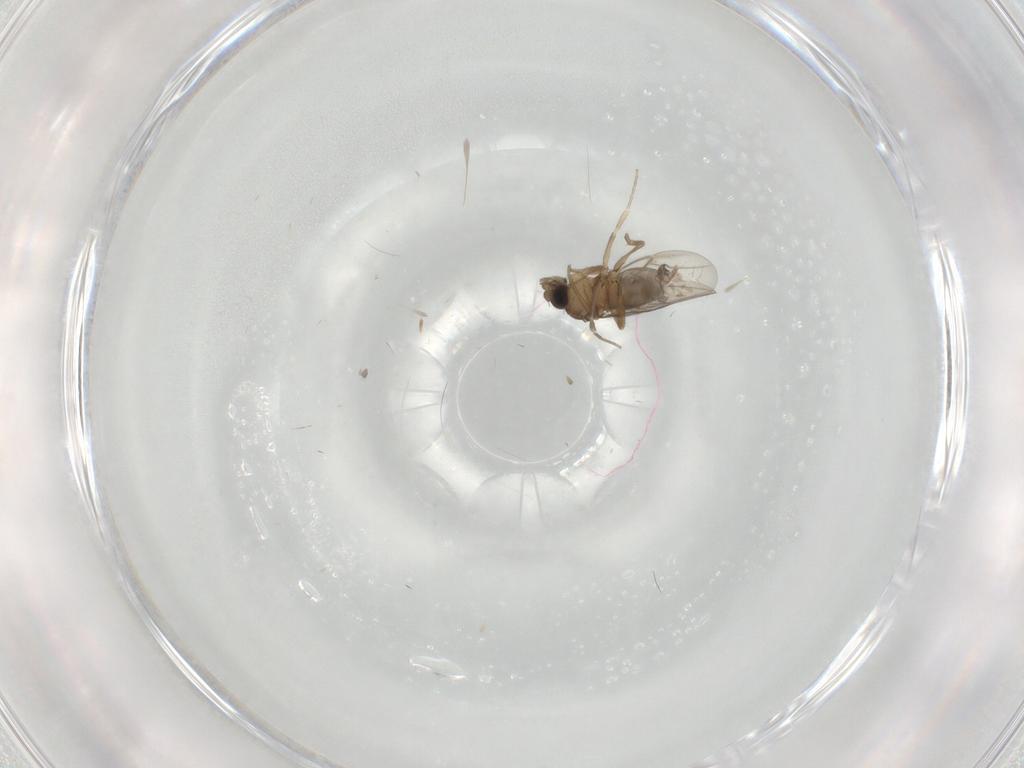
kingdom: Animalia
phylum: Arthropoda
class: Insecta
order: Diptera
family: Phoridae
